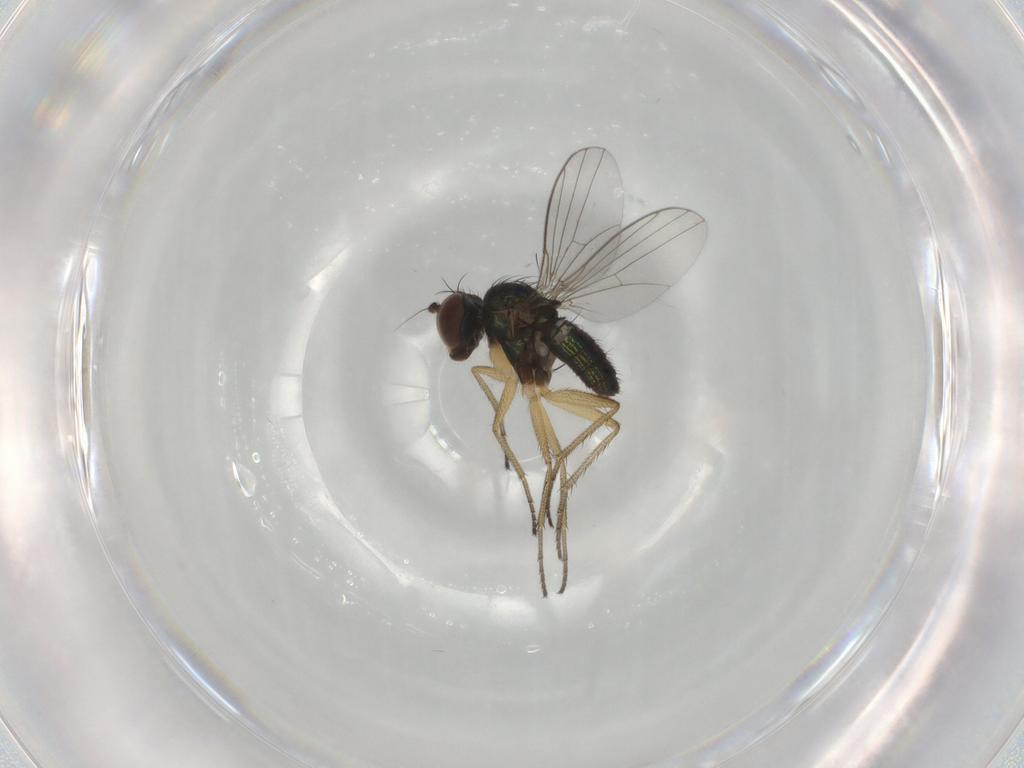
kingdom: Animalia
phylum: Arthropoda
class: Insecta
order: Diptera
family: Dolichopodidae
